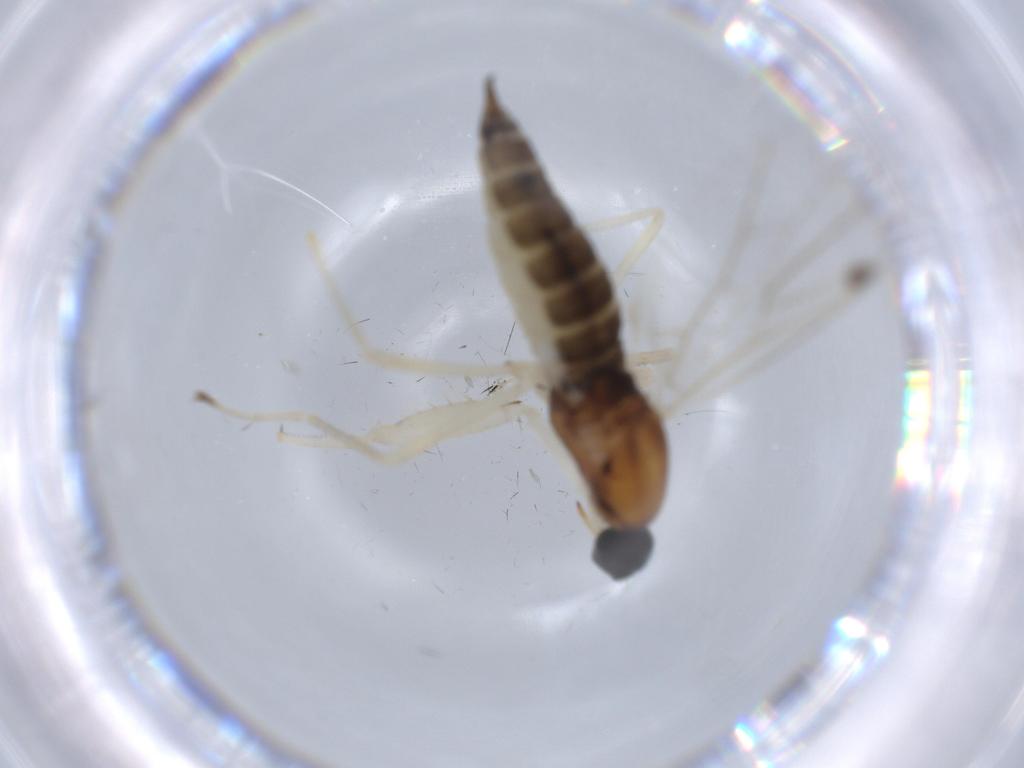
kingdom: Animalia
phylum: Arthropoda
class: Insecta
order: Diptera
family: Empididae
